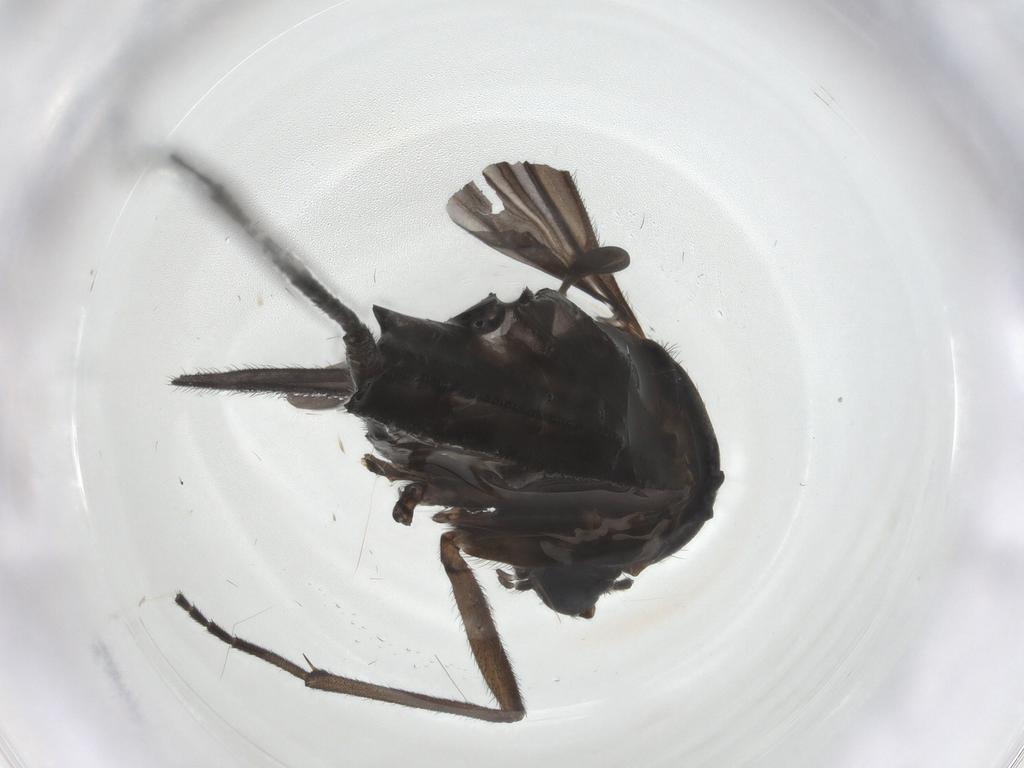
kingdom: Animalia
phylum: Arthropoda
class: Insecta
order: Diptera
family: Sciaridae
